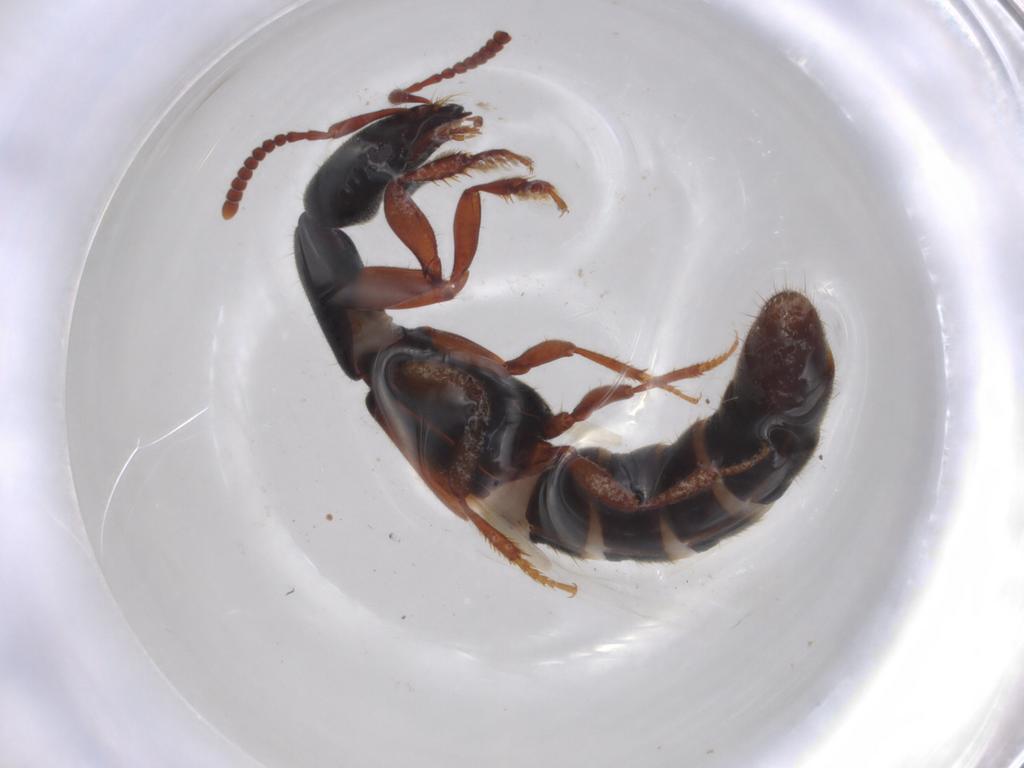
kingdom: Animalia
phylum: Arthropoda
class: Insecta
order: Coleoptera
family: Staphylinidae
